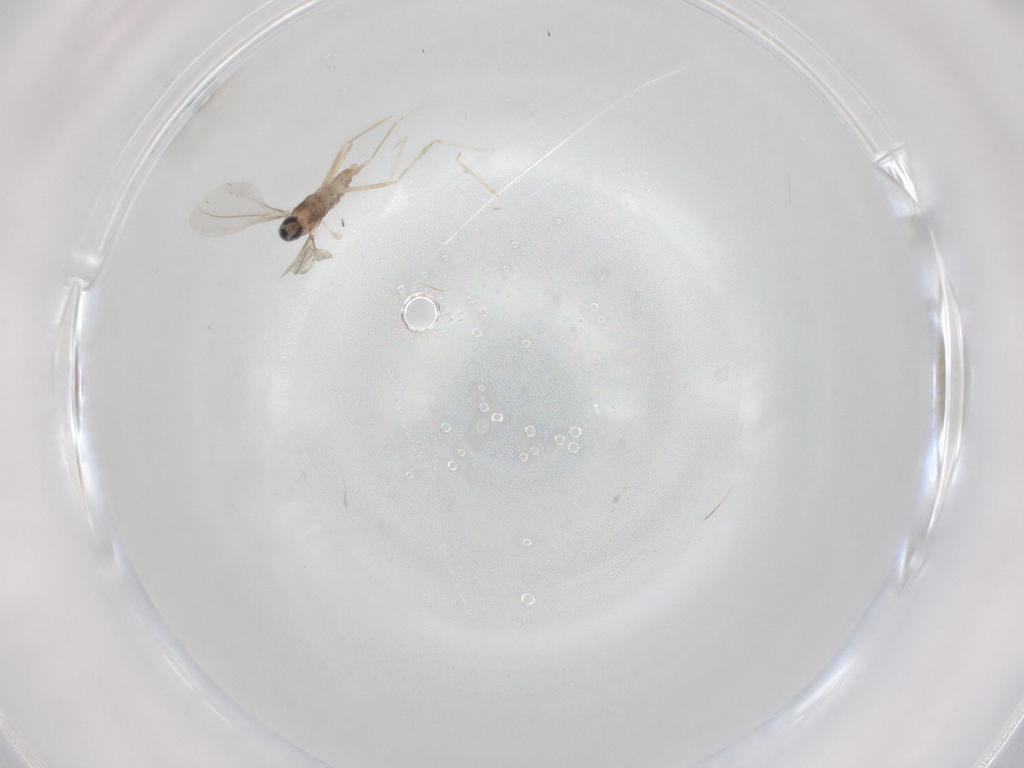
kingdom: Animalia
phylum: Arthropoda
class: Insecta
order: Diptera
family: Cecidomyiidae
